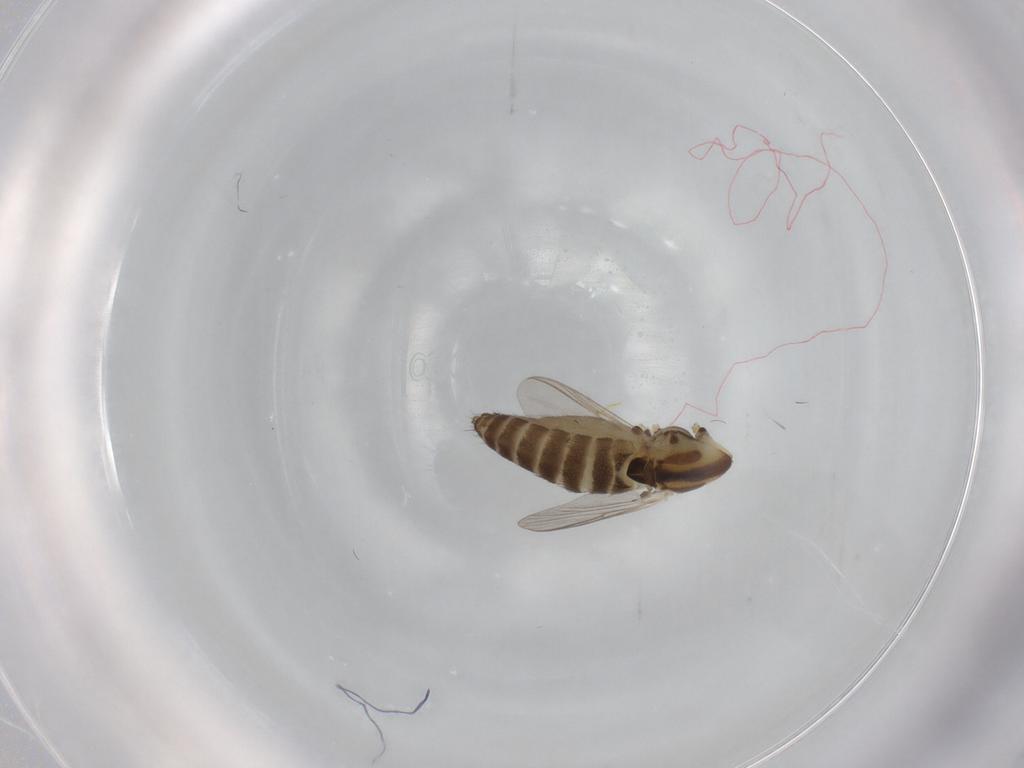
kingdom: Animalia
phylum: Arthropoda
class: Insecta
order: Diptera
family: Chironomidae
